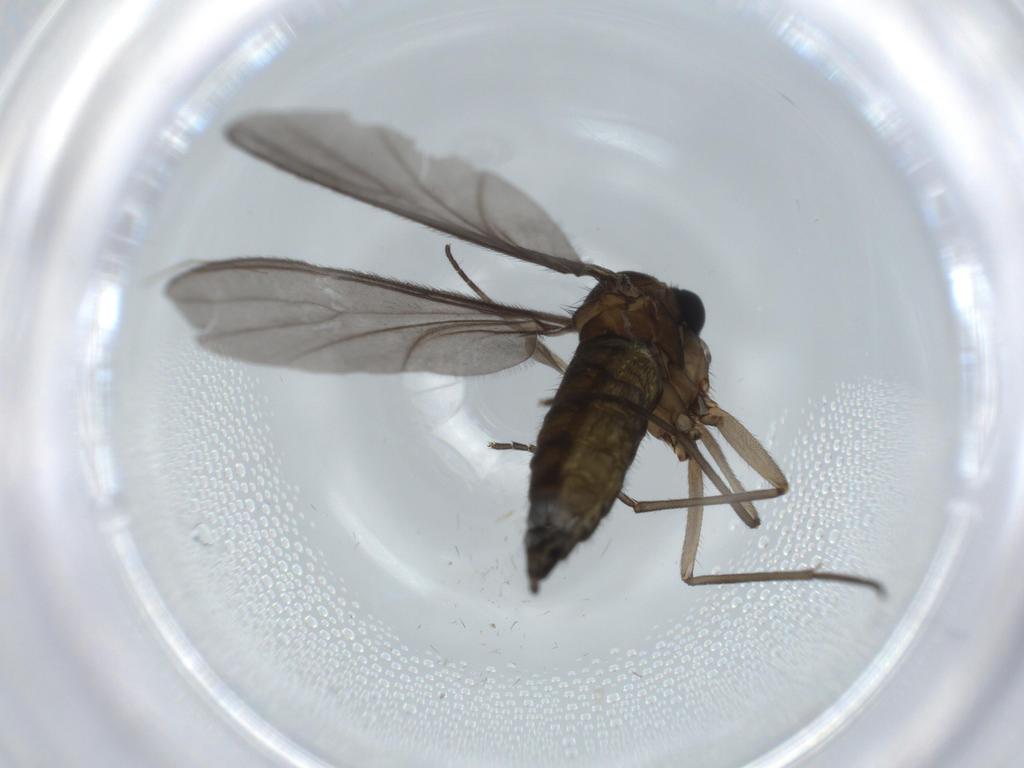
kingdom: Animalia
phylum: Arthropoda
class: Insecta
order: Diptera
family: Sciaridae
